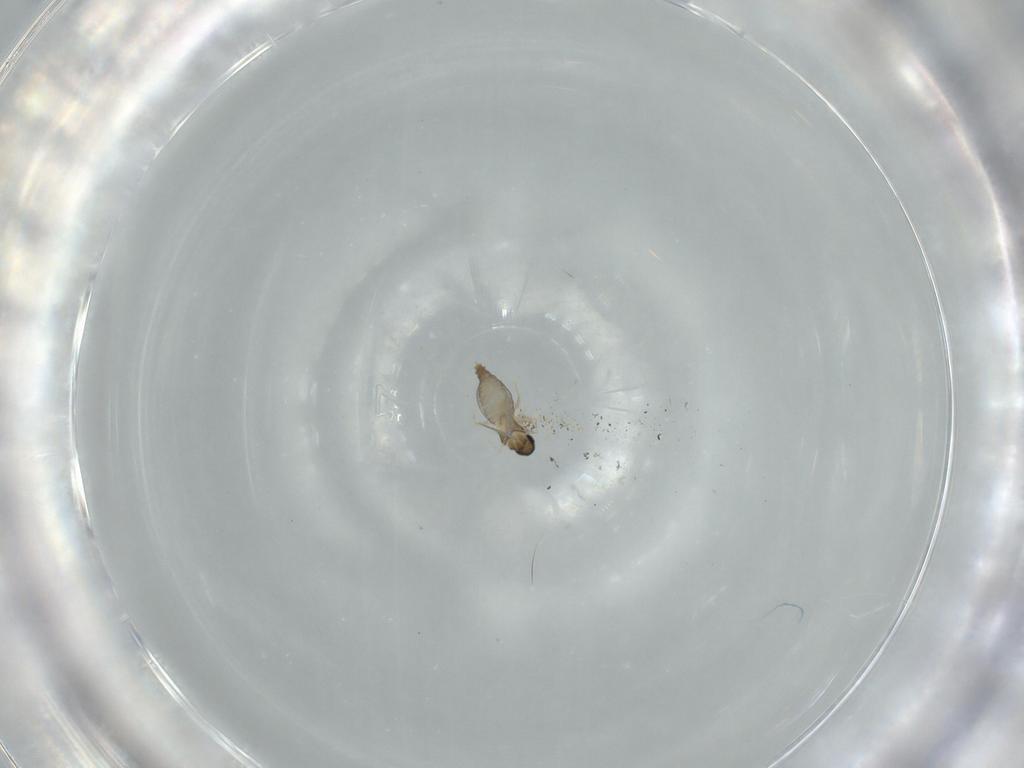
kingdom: Animalia
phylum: Arthropoda
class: Insecta
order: Diptera
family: Cecidomyiidae
